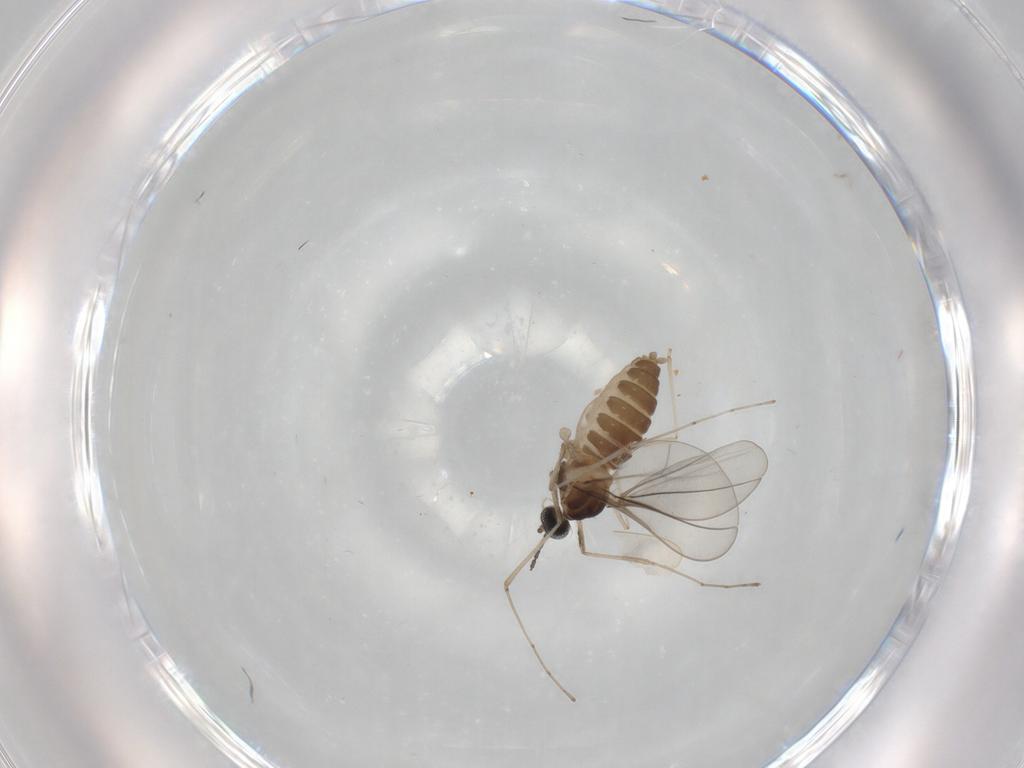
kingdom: Animalia
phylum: Arthropoda
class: Insecta
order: Diptera
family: Cecidomyiidae
